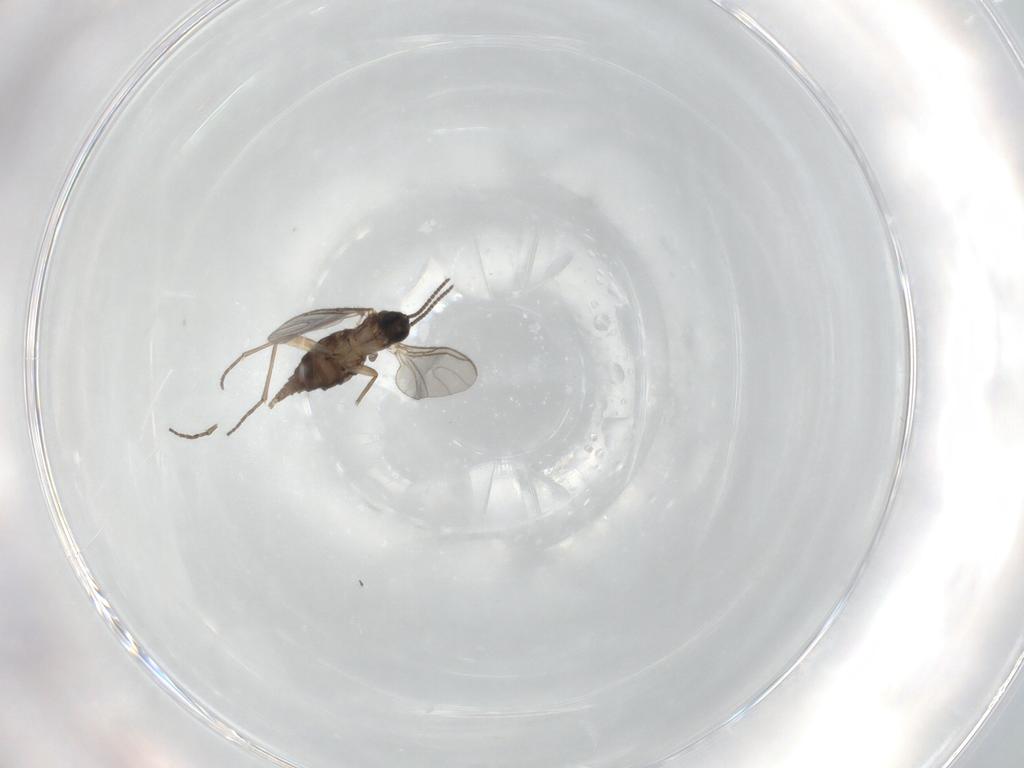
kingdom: Animalia
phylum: Arthropoda
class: Insecta
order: Diptera
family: Sciaridae
